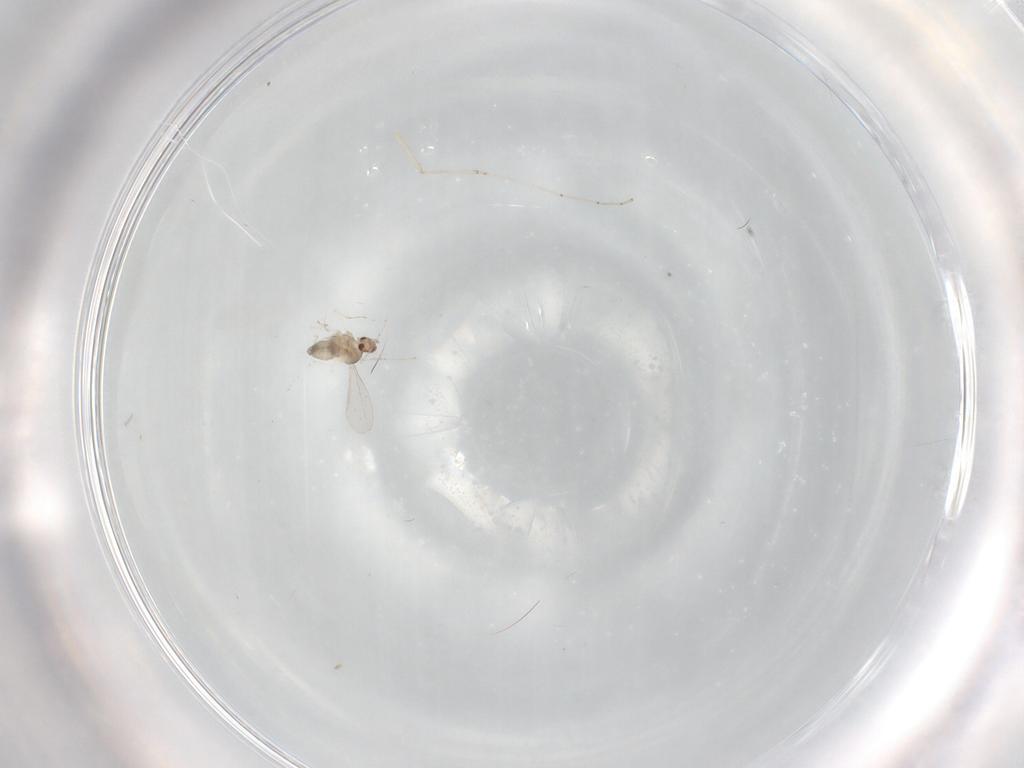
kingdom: Animalia
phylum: Arthropoda
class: Insecta
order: Diptera
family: Cecidomyiidae
